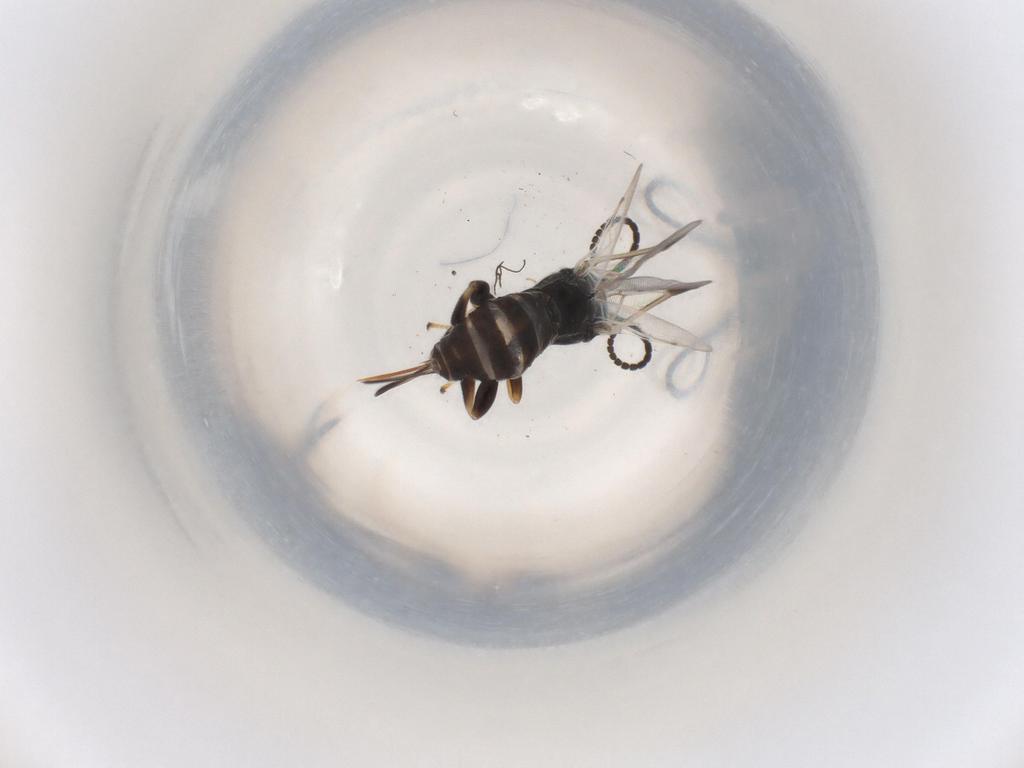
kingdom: Animalia
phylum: Arthropoda
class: Insecta
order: Hymenoptera
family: Braconidae
